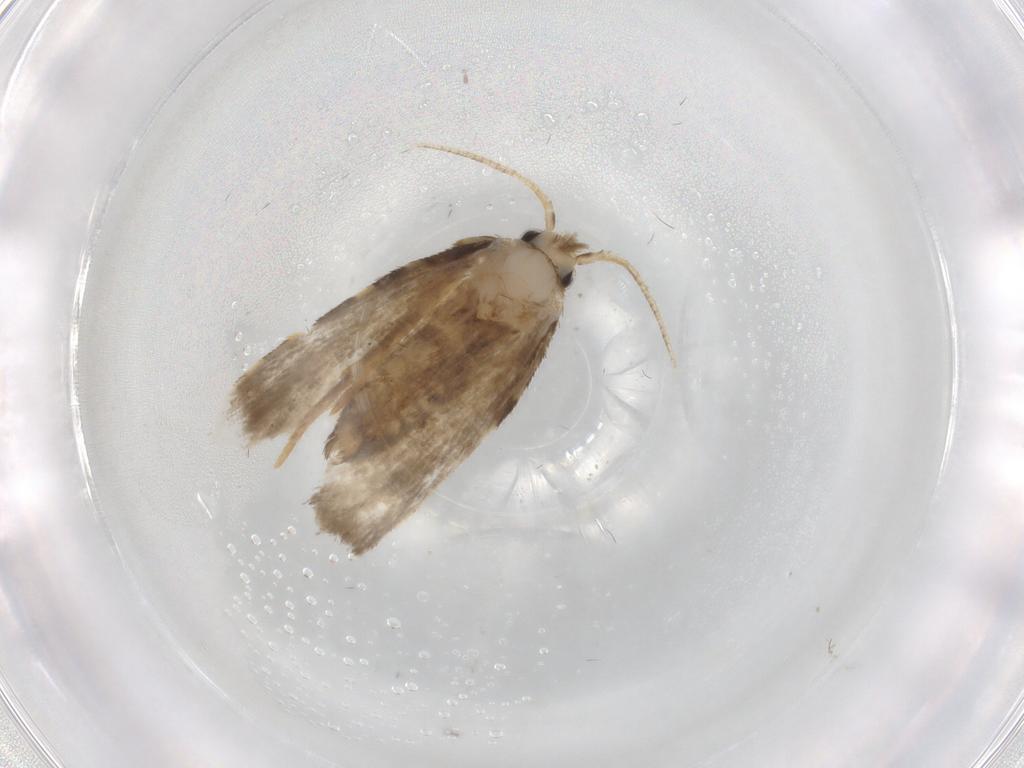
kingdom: Animalia
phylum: Arthropoda
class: Insecta
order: Lepidoptera
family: Psychidae
